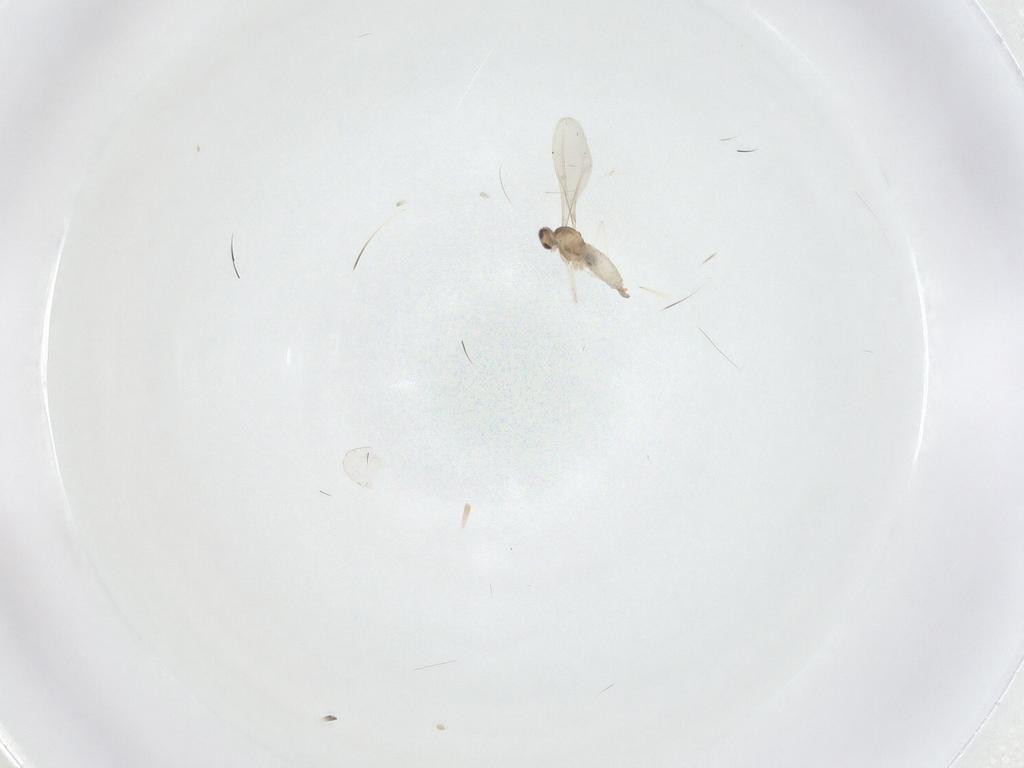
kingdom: Animalia
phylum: Arthropoda
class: Insecta
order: Diptera
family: Cecidomyiidae
